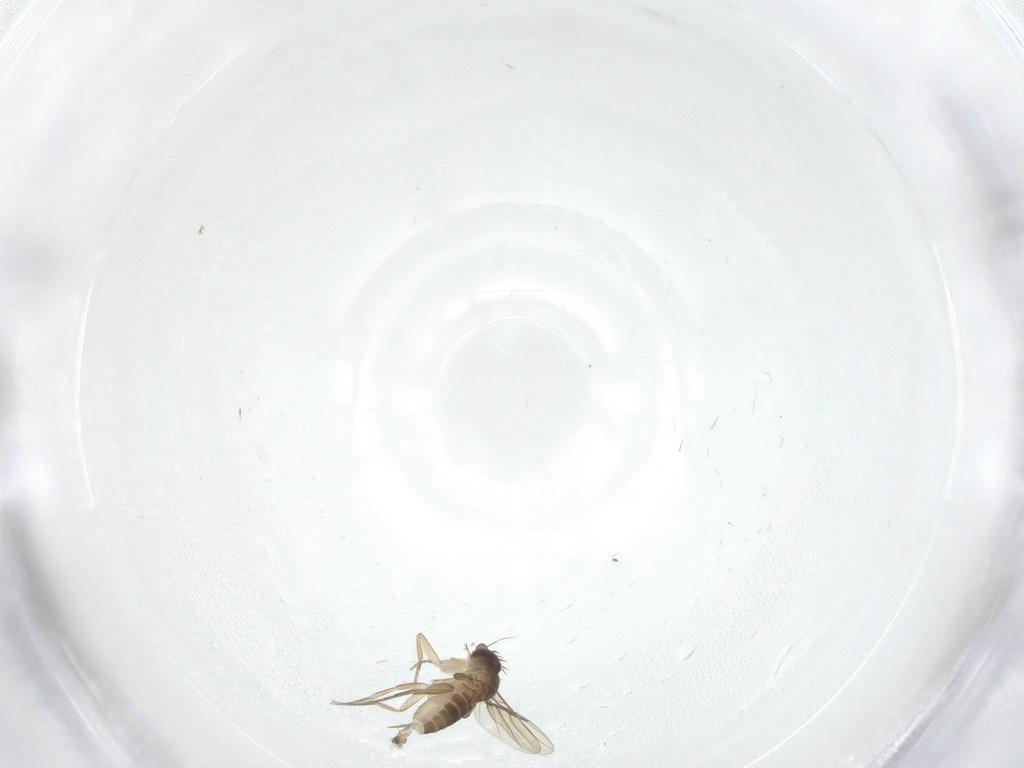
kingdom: Animalia
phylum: Arthropoda
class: Insecta
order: Diptera
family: Phoridae
